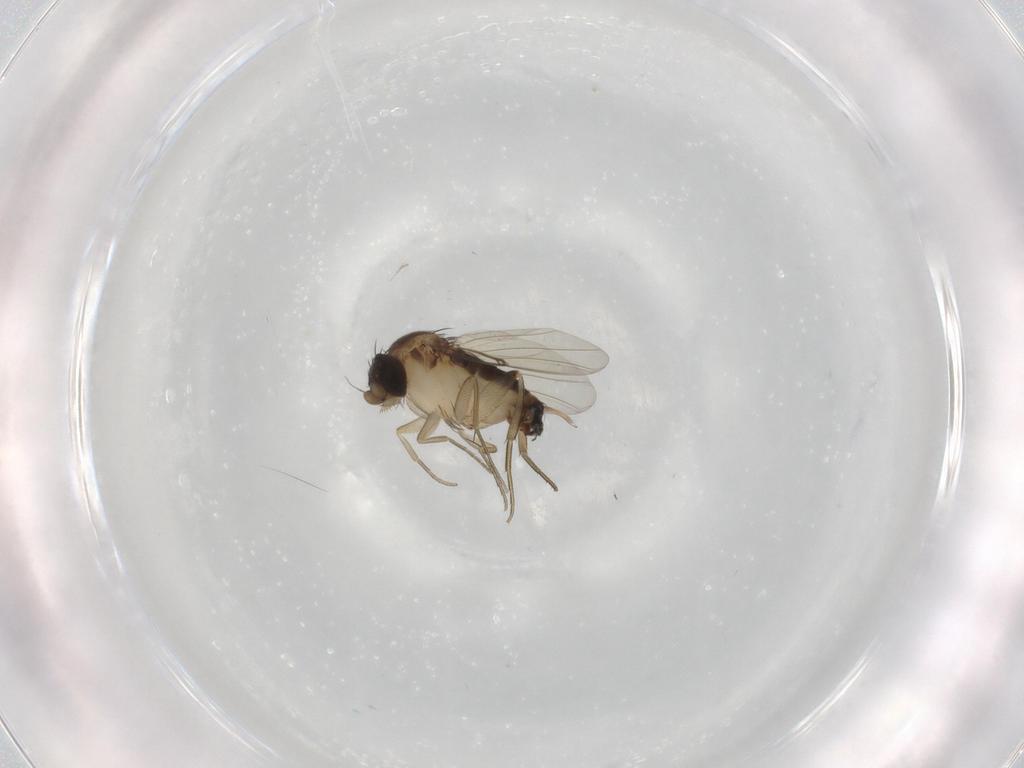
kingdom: Animalia
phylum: Arthropoda
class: Insecta
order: Diptera
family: Phoridae
